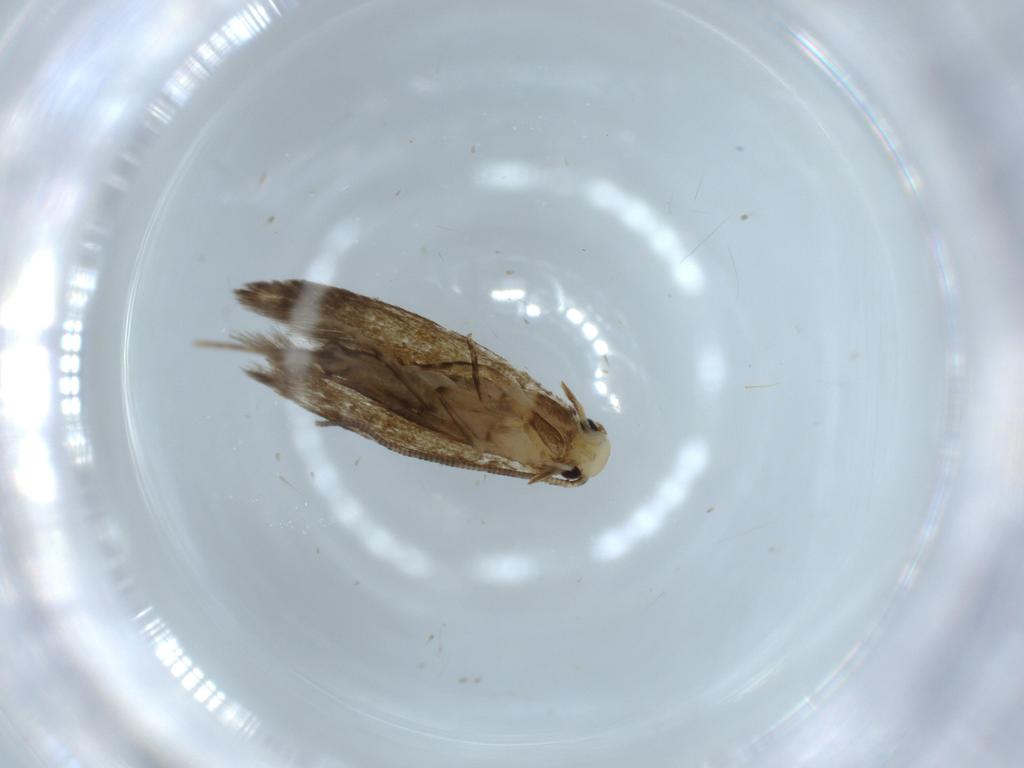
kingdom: Animalia
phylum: Arthropoda
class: Insecta
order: Lepidoptera
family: Tineidae
